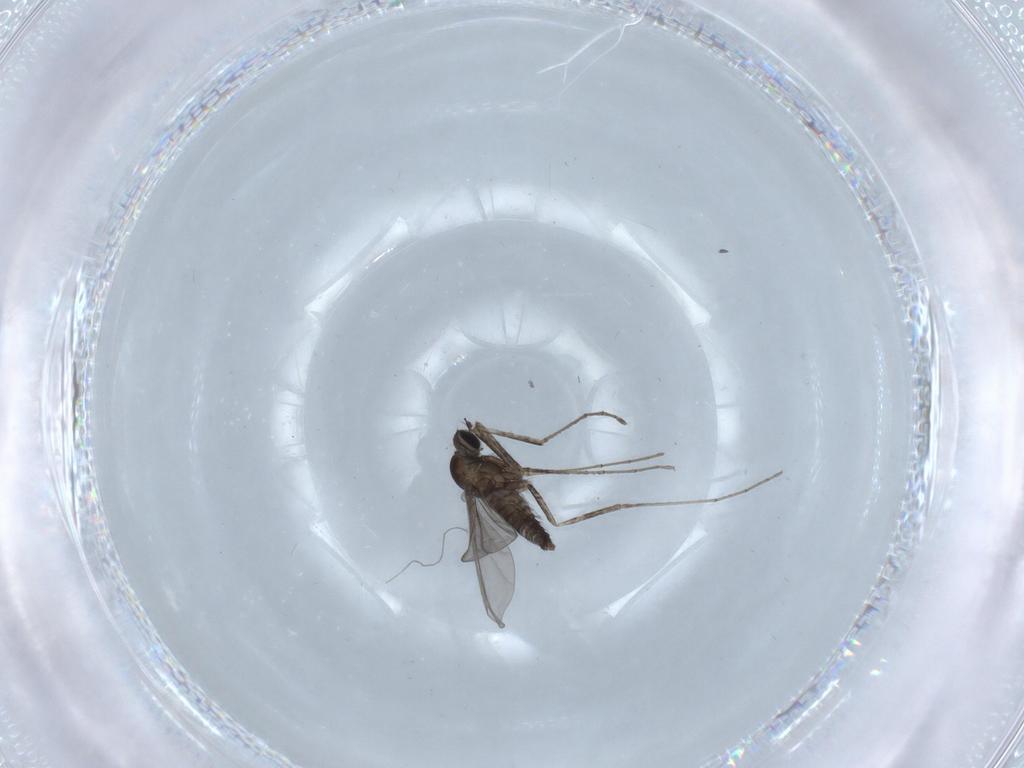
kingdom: Animalia
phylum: Arthropoda
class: Insecta
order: Diptera
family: Cecidomyiidae
